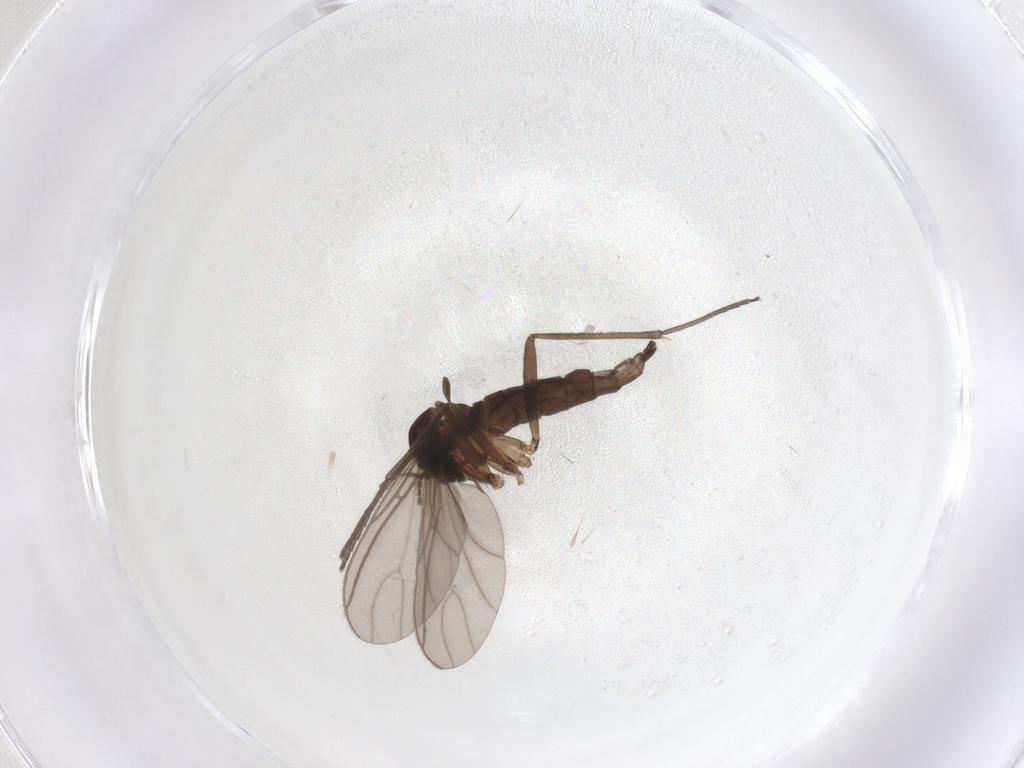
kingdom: Animalia
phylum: Arthropoda
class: Insecta
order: Diptera
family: Sciaridae
